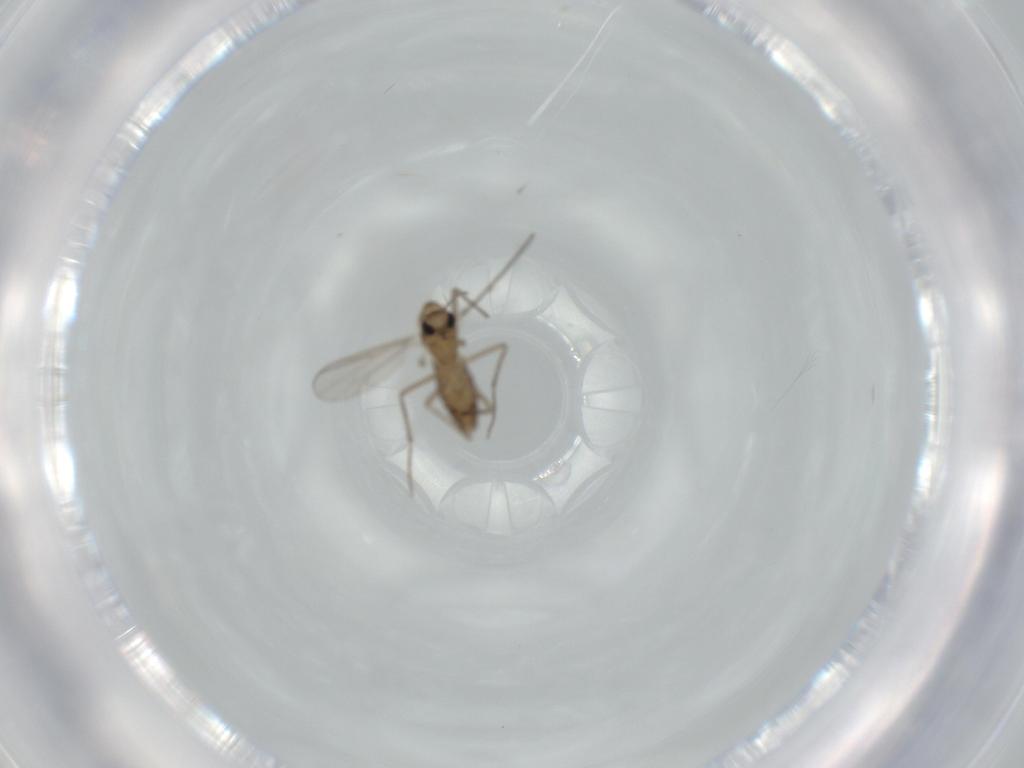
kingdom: Animalia
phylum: Arthropoda
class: Insecta
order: Diptera
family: Chironomidae
